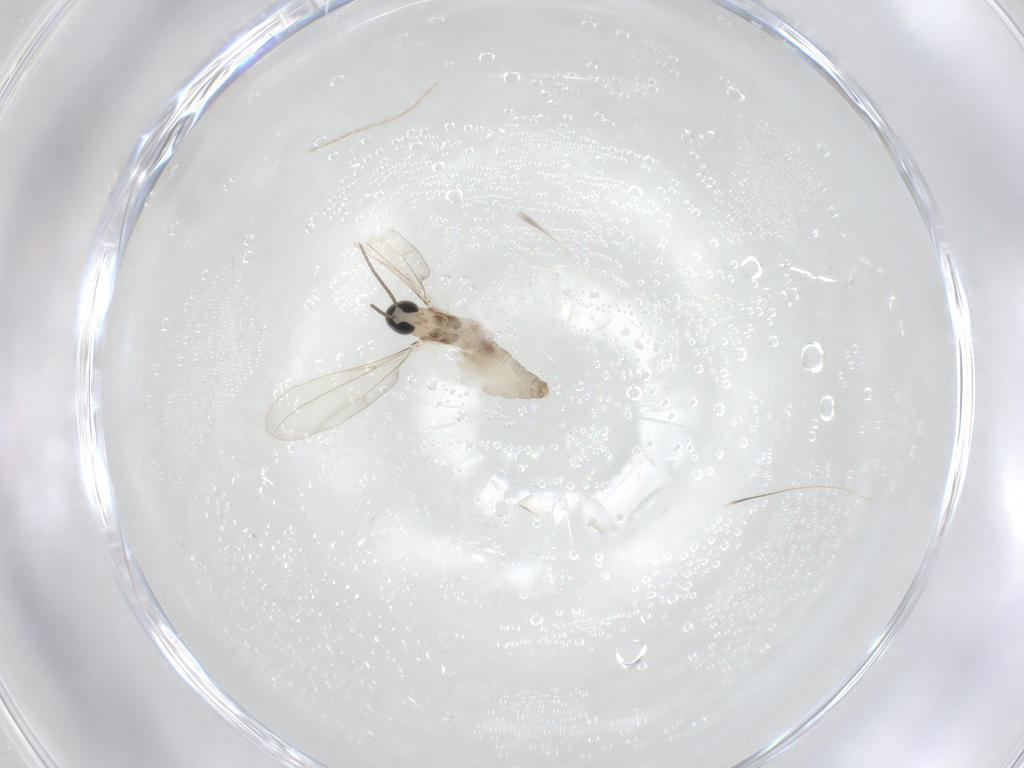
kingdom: Animalia
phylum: Arthropoda
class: Insecta
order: Diptera
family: Cecidomyiidae
